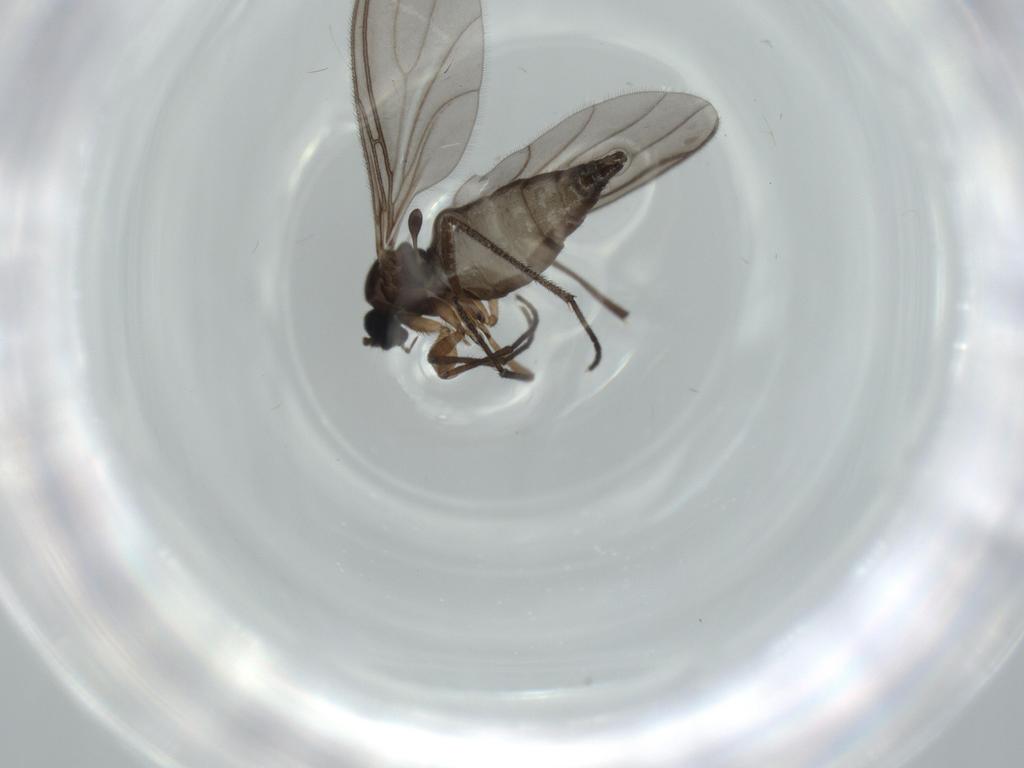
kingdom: Animalia
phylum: Arthropoda
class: Insecta
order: Diptera
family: Sciaridae
